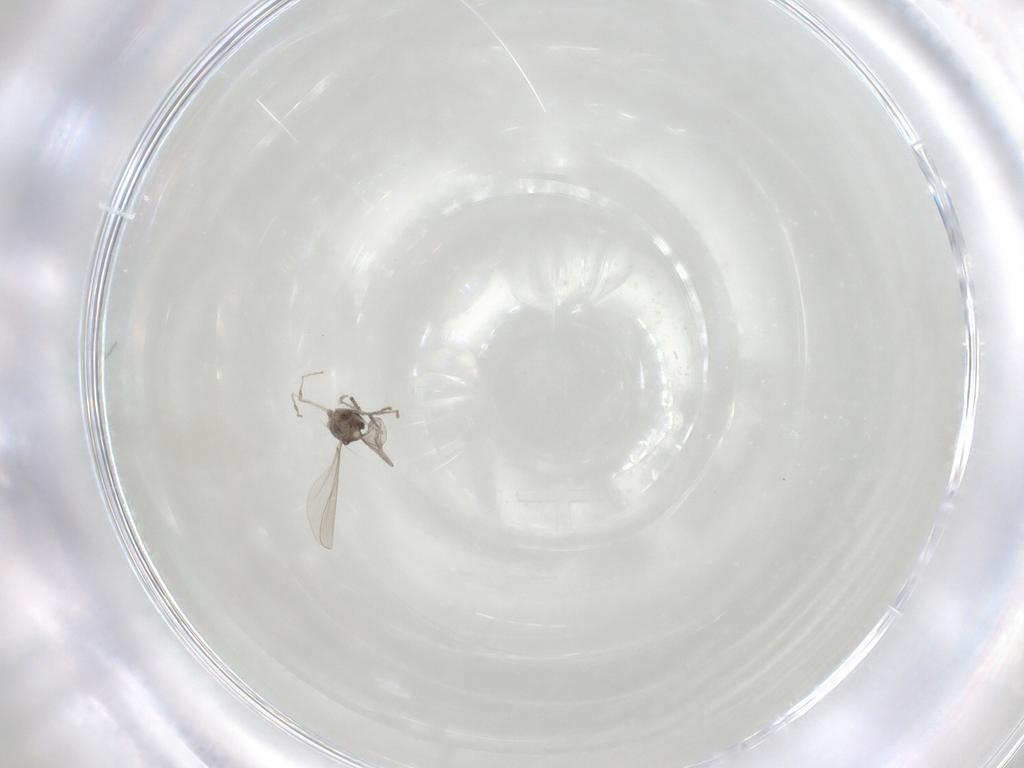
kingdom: Animalia
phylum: Arthropoda
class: Insecta
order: Diptera
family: Cecidomyiidae
